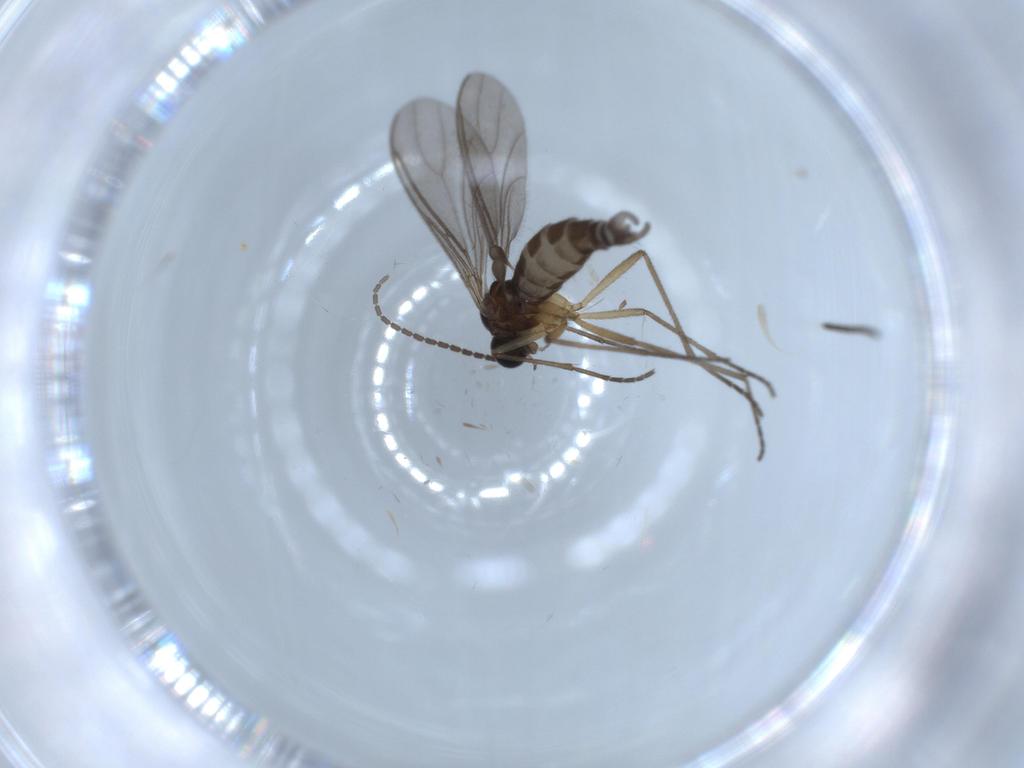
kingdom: Animalia
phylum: Arthropoda
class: Insecta
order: Diptera
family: Sciaridae
